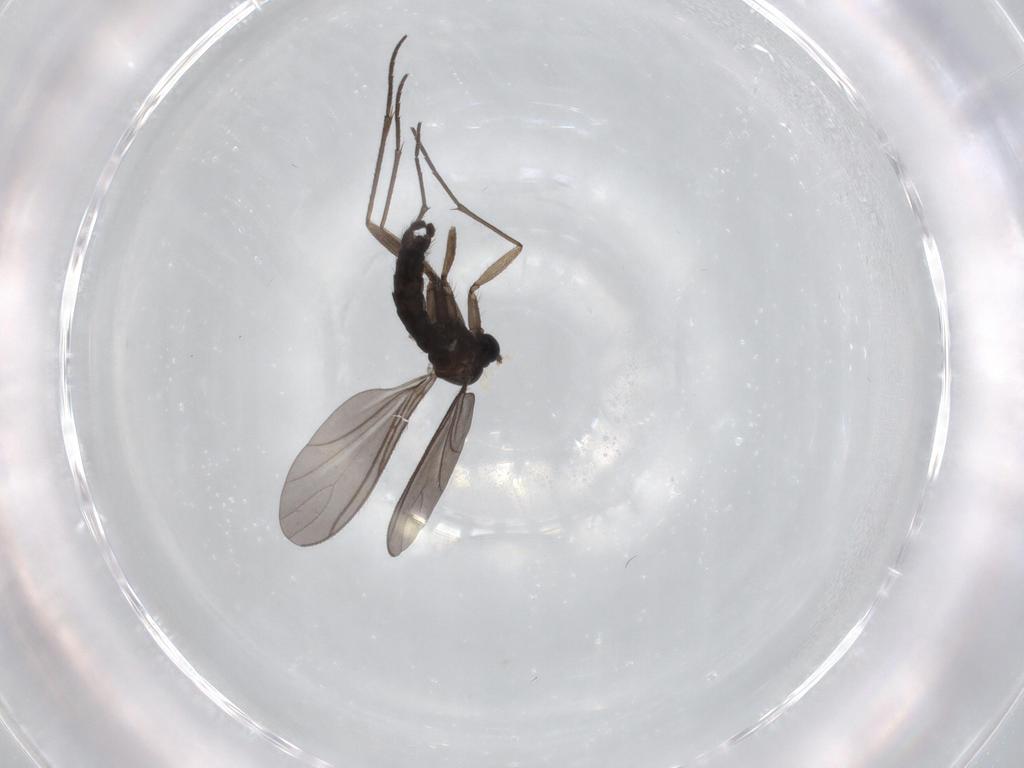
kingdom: Animalia
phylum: Arthropoda
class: Insecta
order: Diptera
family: Sciaridae
